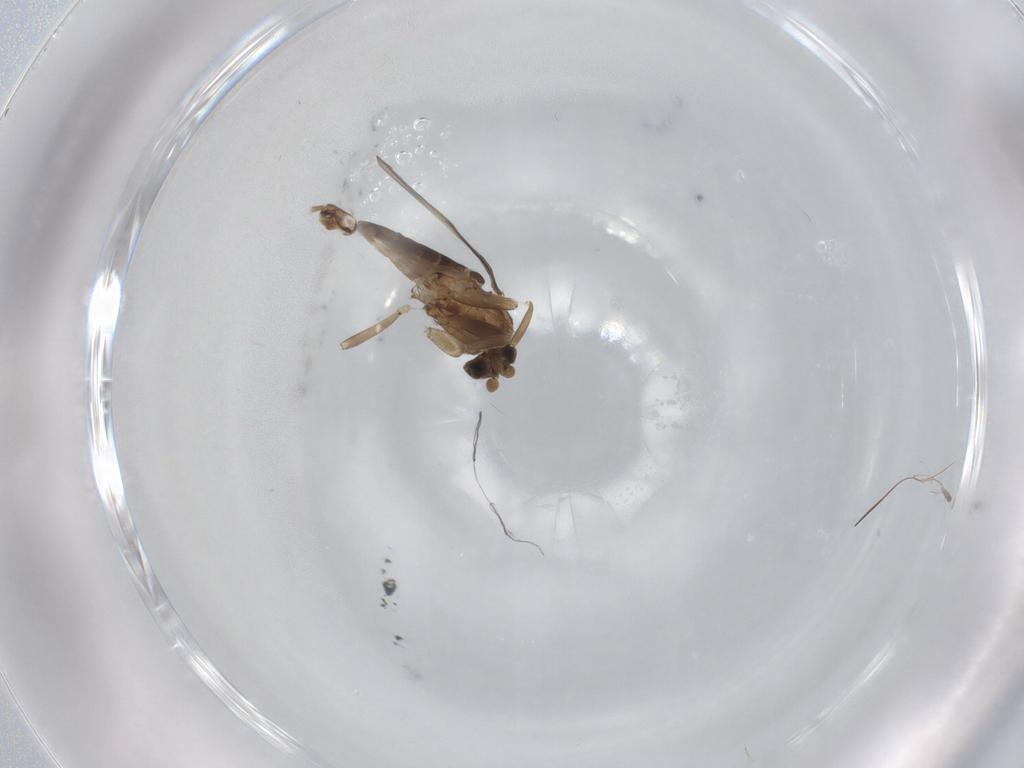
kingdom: Animalia
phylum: Arthropoda
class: Insecta
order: Diptera
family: Cecidomyiidae
